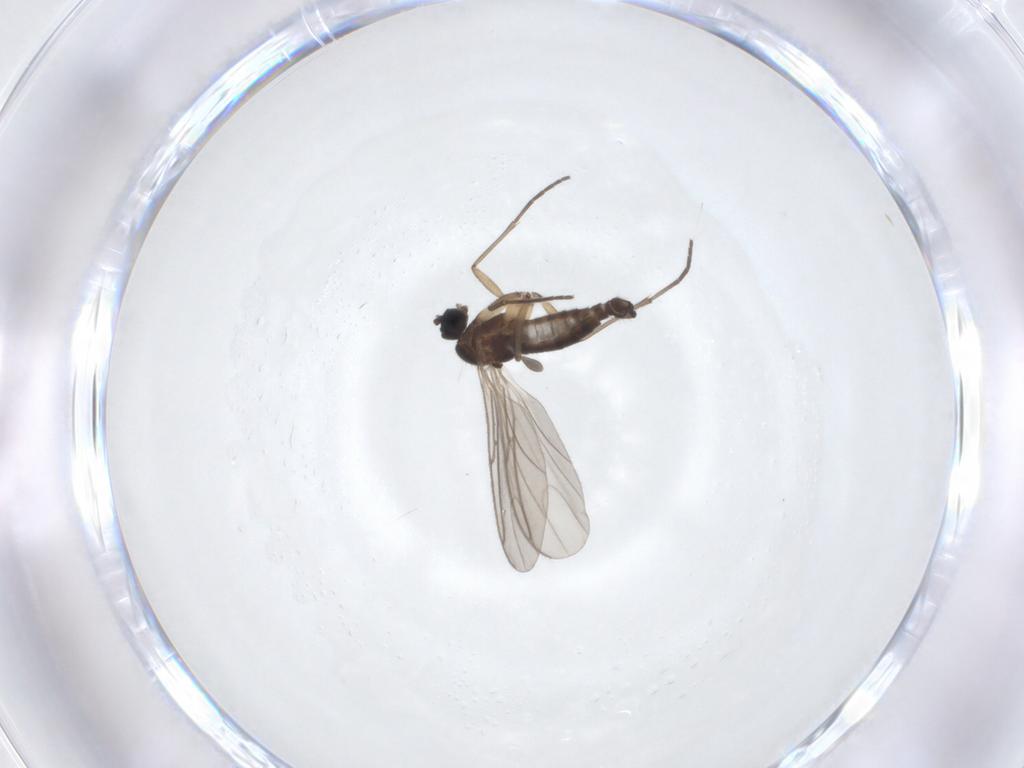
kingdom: Animalia
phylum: Arthropoda
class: Insecta
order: Diptera
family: Sciaridae
